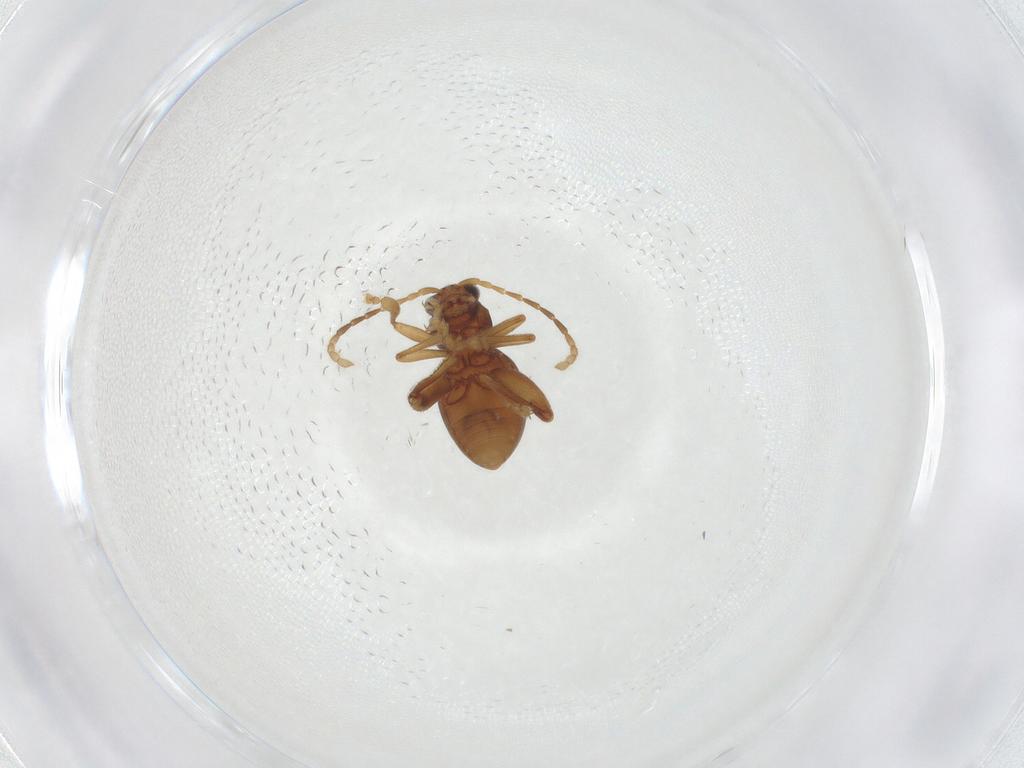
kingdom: Animalia
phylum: Arthropoda
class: Insecta
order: Coleoptera
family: Chrysomelidae
